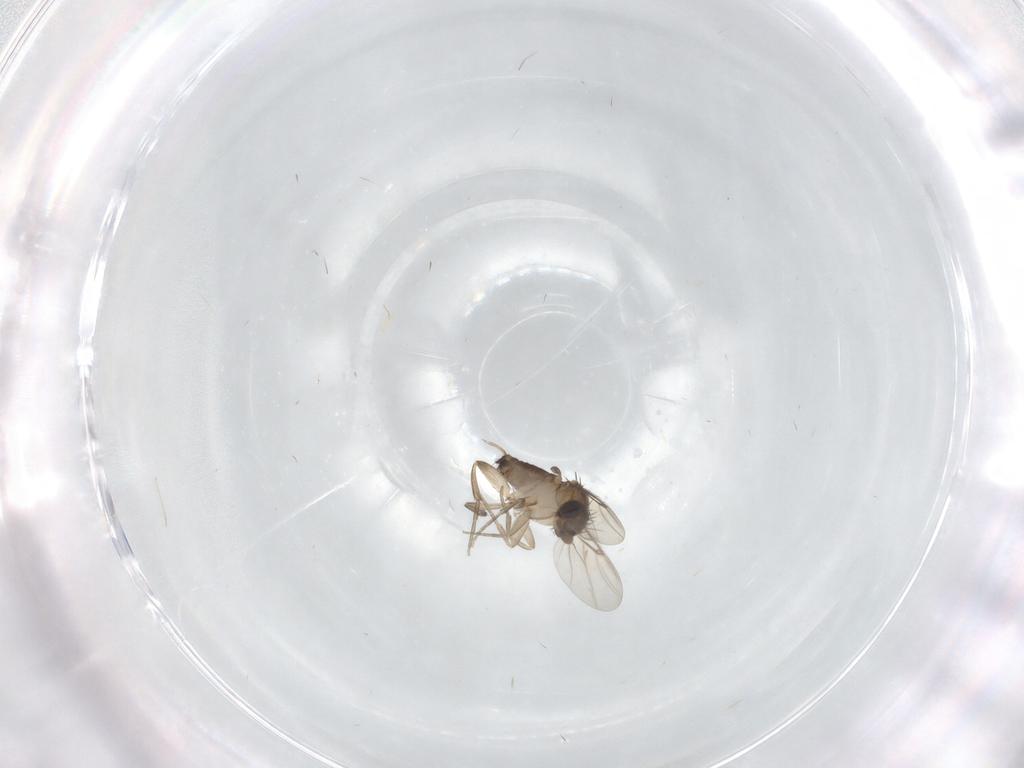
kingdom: Animalia
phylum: Arthropoda
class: Insecta
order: Diptera
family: Phoridae
